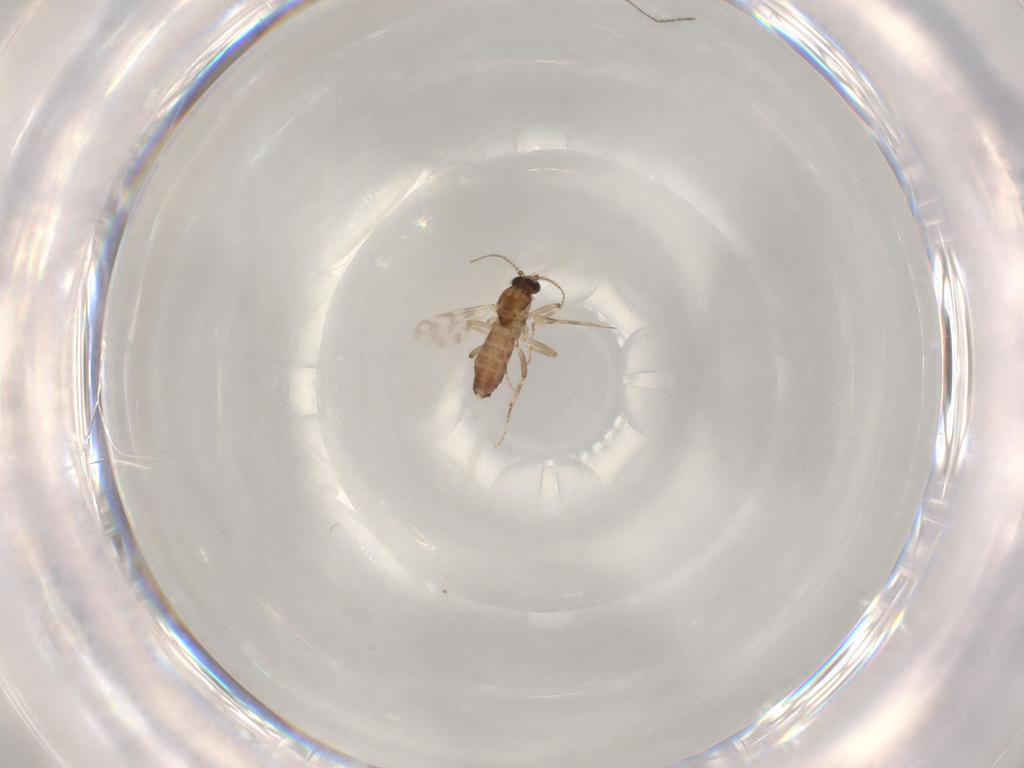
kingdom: Animalia
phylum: Arthropoda
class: Insecta
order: Diptera
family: Ceratopogonidae
